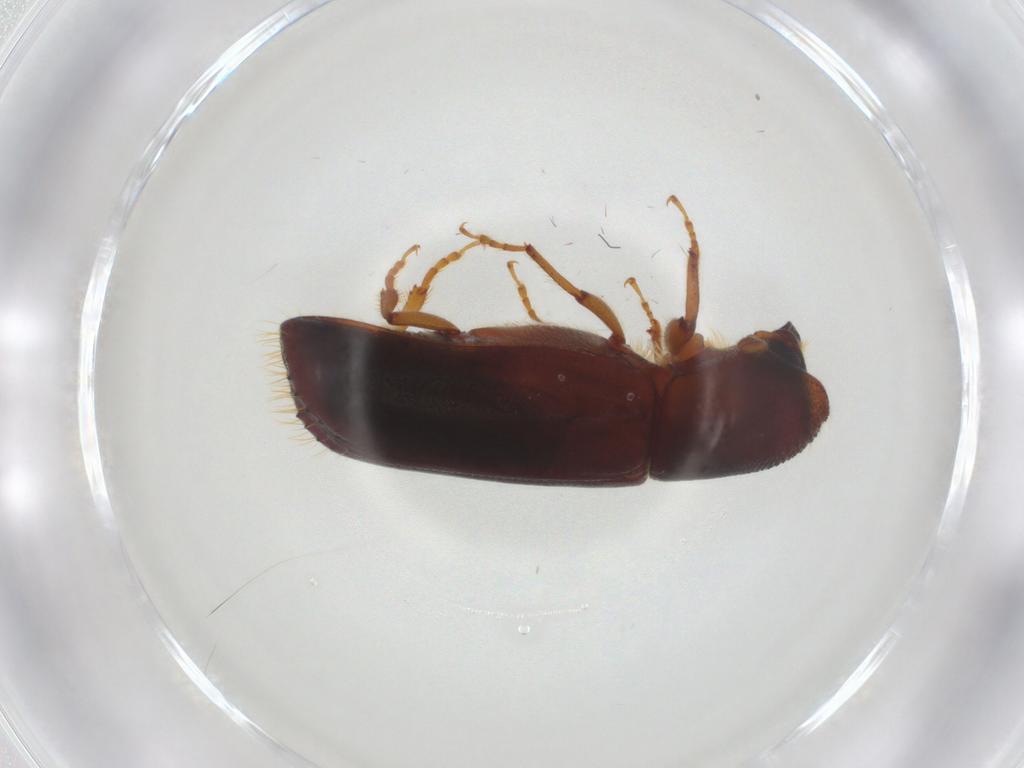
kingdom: Animalia
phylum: Arthropoda
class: Insecta
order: Coleoptera
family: Curculionidae
